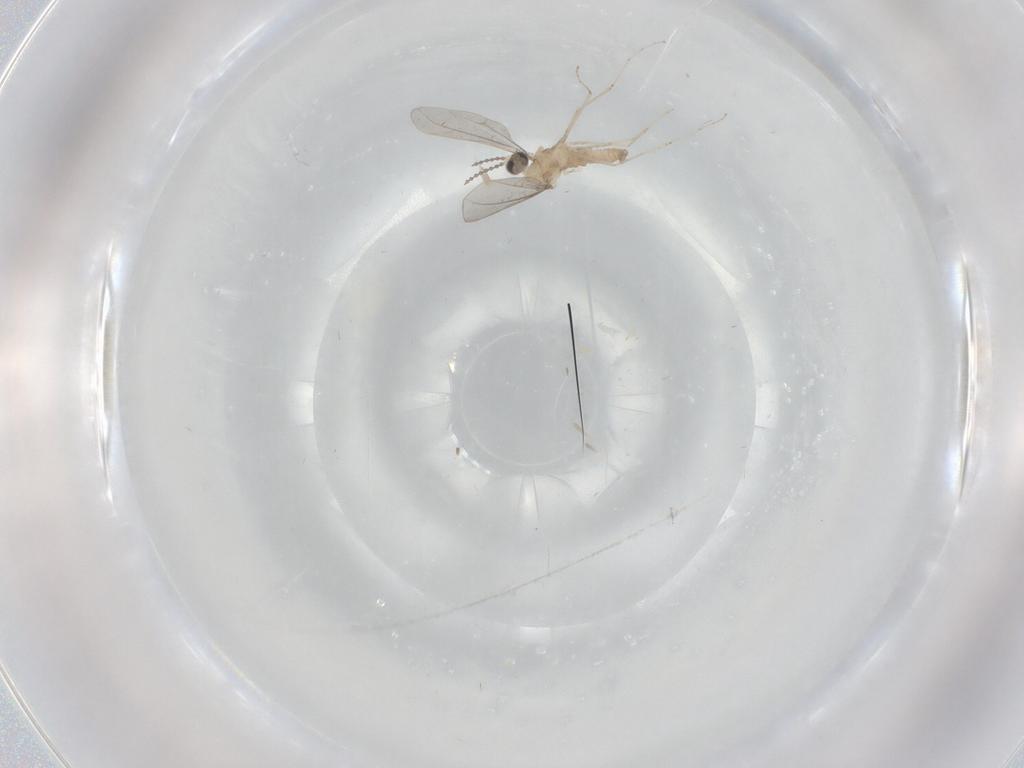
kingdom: Animalia
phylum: Arthropoda
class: Insecta
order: Diptera
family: Cecidomyiidae
